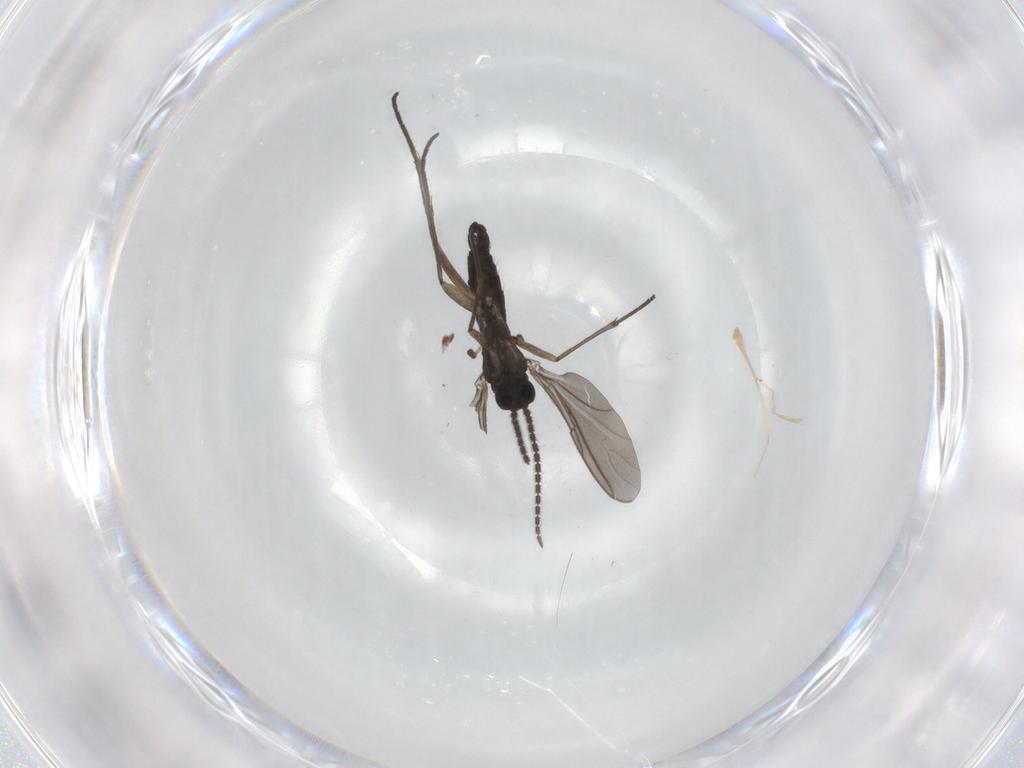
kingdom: Animalia
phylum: Arthropoda
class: Insecta
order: Diptera
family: Sciaridae
